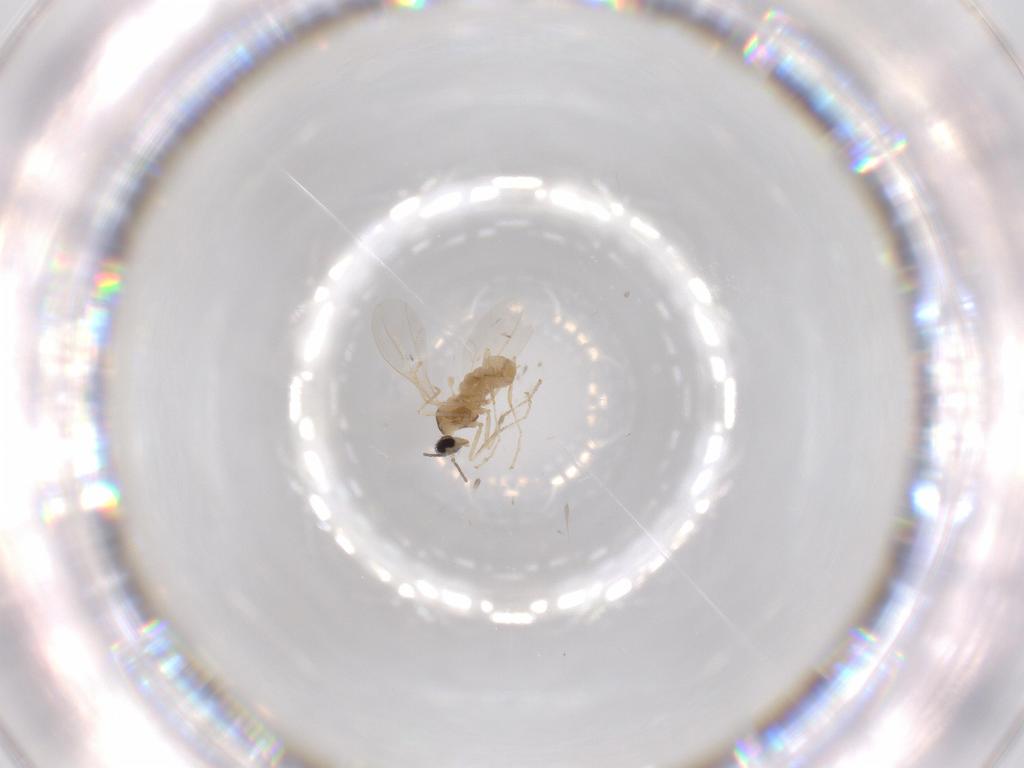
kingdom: Animalia
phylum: Arthropoda
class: Insecta
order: Diptera
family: Cecidomyiidae
